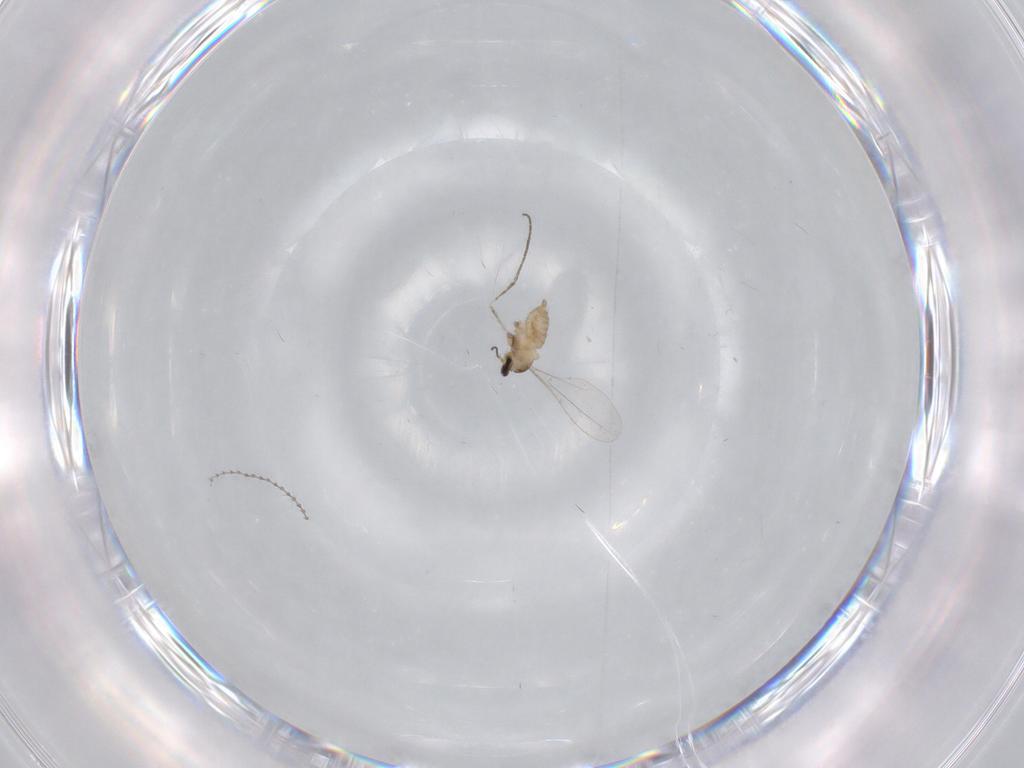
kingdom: Animalia
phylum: Arthropoda
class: Insecta
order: Diptera
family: Cecidomyiidae
